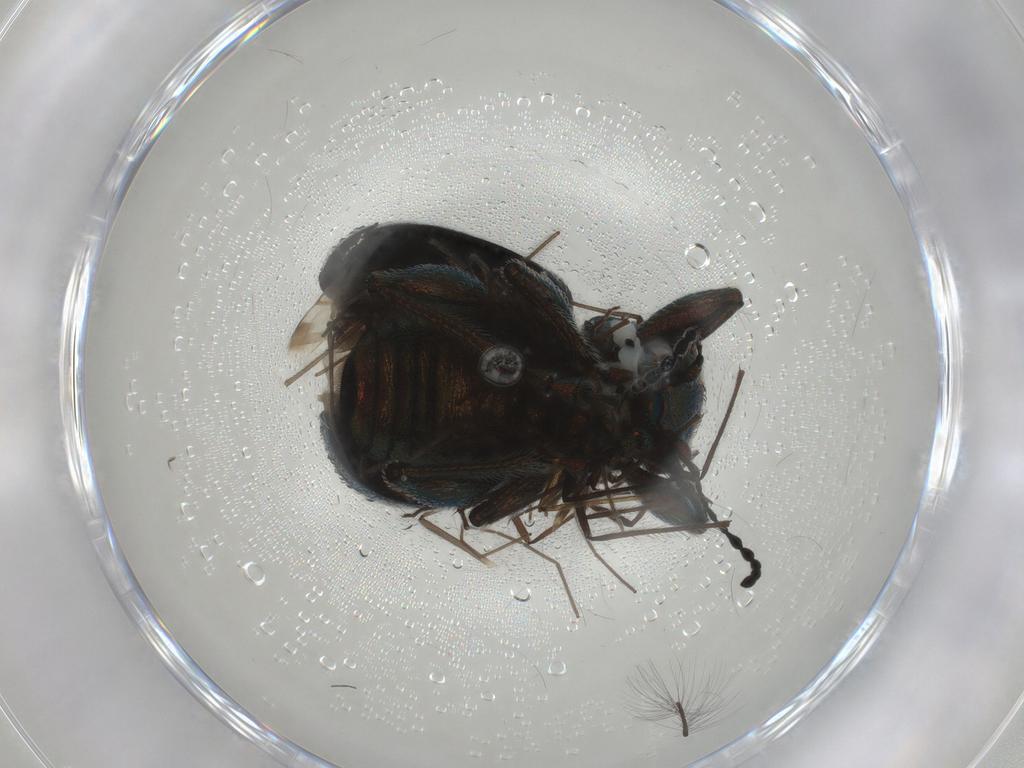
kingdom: Animalia
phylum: Arthropoda
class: Insecta
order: Coleoptera
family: Chrysomelidae
